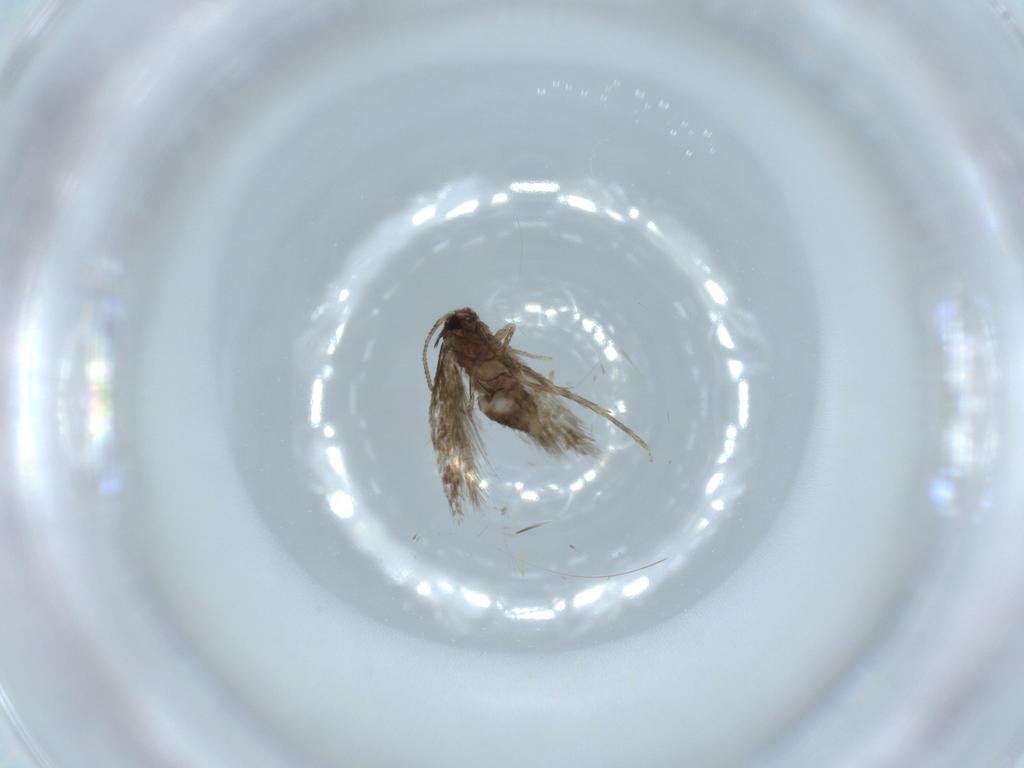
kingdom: Animalia
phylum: Arthropoda
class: Insecta
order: Lepidoptera
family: Nepticulidae
